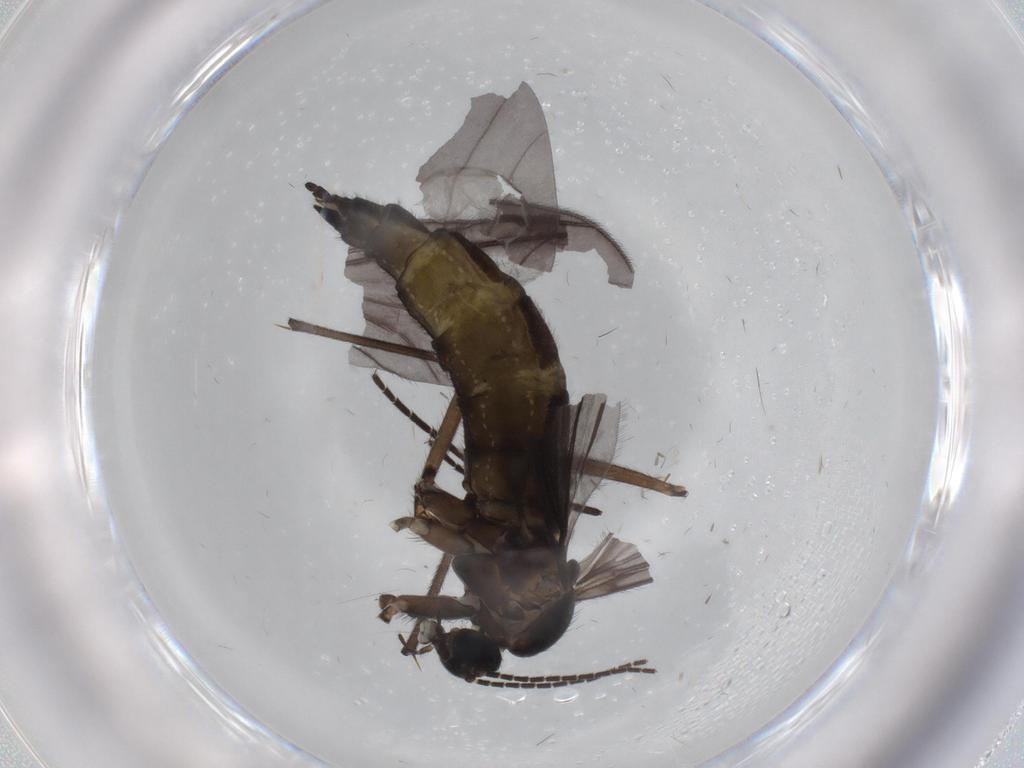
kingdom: Animalia
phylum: Arthropoda
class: Insecta
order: Diptera
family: Sciaridae
